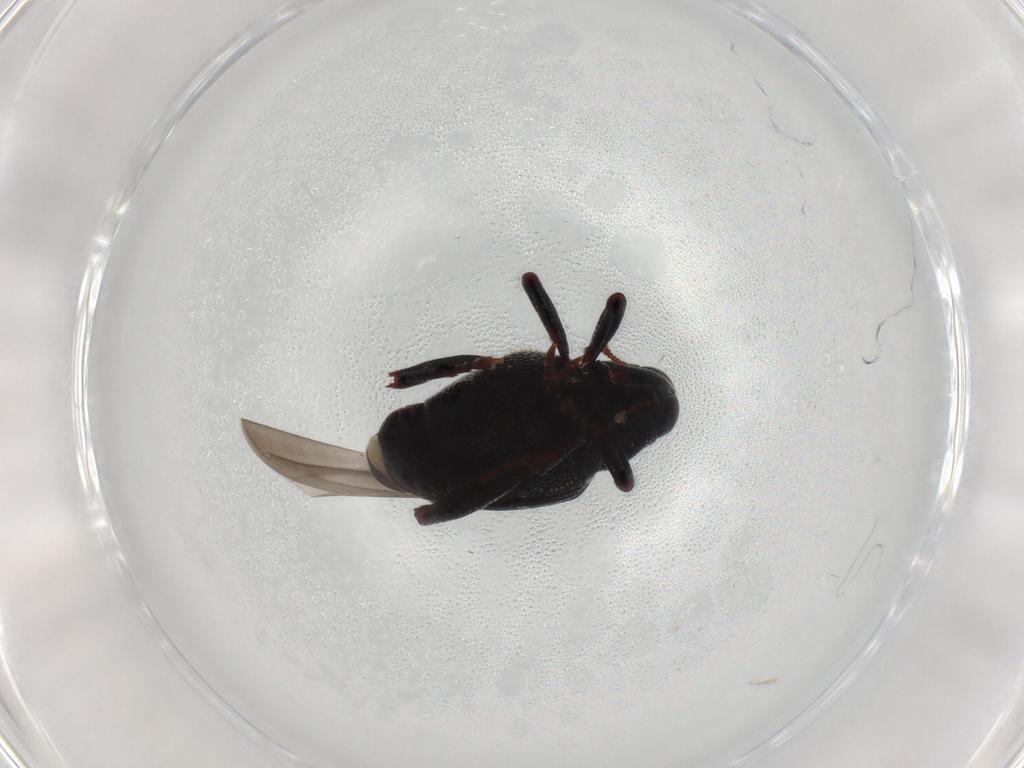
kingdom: Animalia
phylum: Arthropoda
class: Insecta
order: Coleoptera
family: Curculionidae
